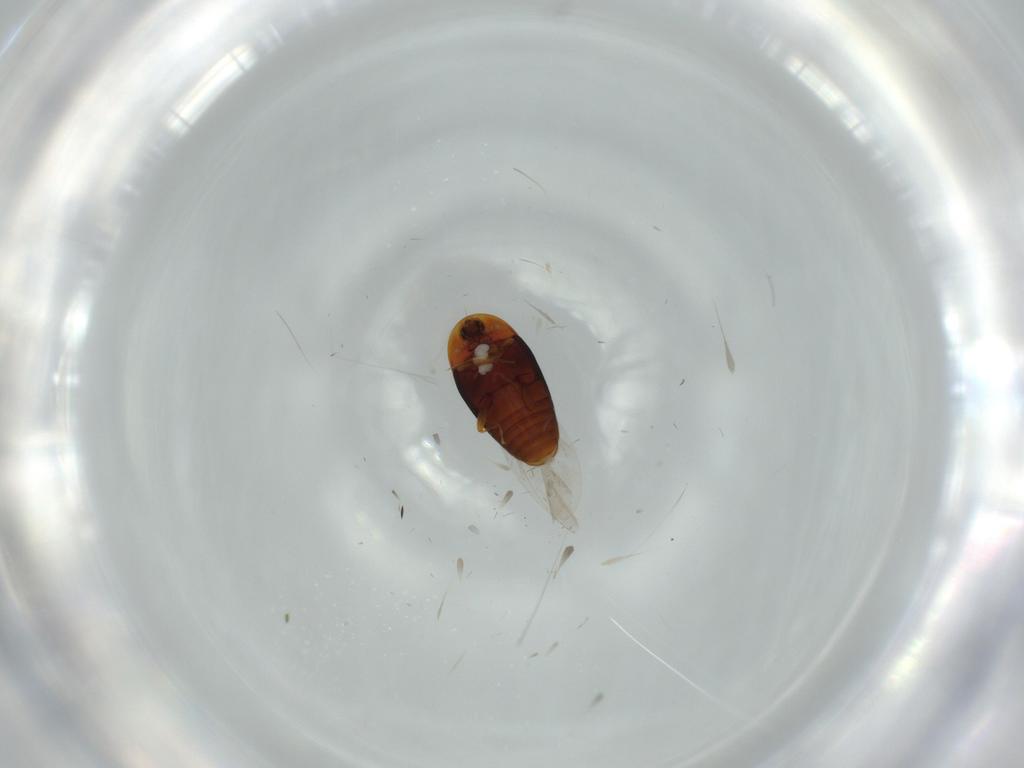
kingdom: Animalia
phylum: Arthropoda
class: Insecta
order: Coleoptera
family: Corylophidae
